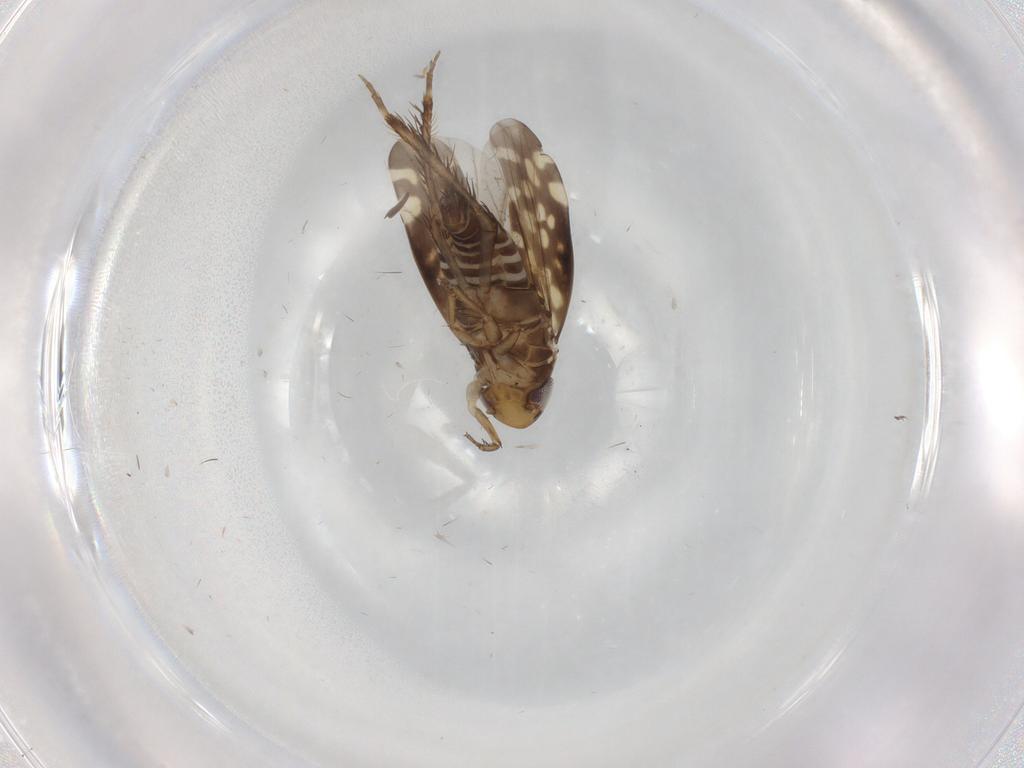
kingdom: Animalia
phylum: Arthropoda
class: Insecta
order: Hemiptera
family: Cicadellidae
